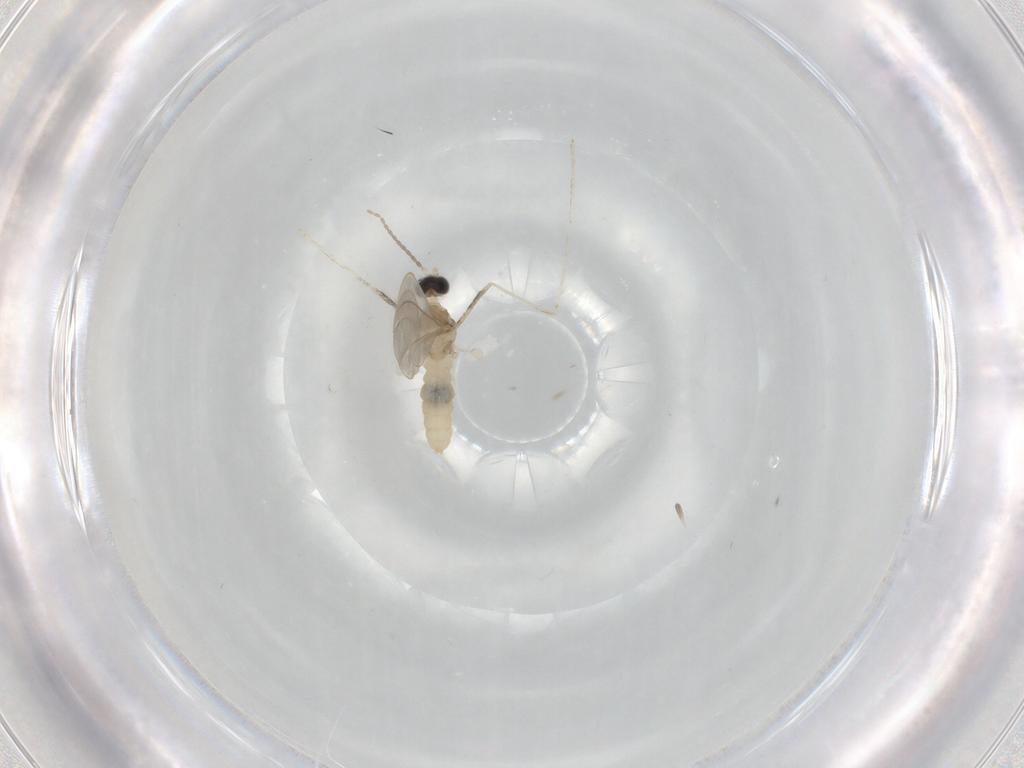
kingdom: Animalia
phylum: Arthropoda
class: Insecta
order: Diptera
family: Cecidomyiidae
